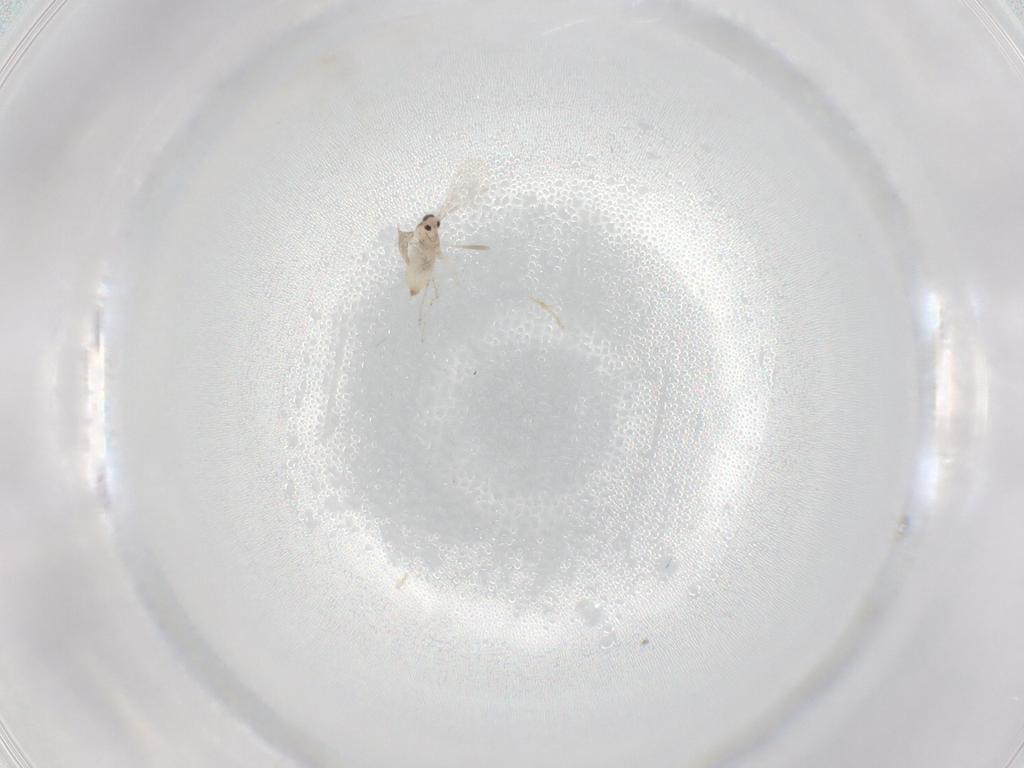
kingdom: Animalia
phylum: Arthropoda
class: Insecta
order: Diptera
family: Cecidomyiidae
